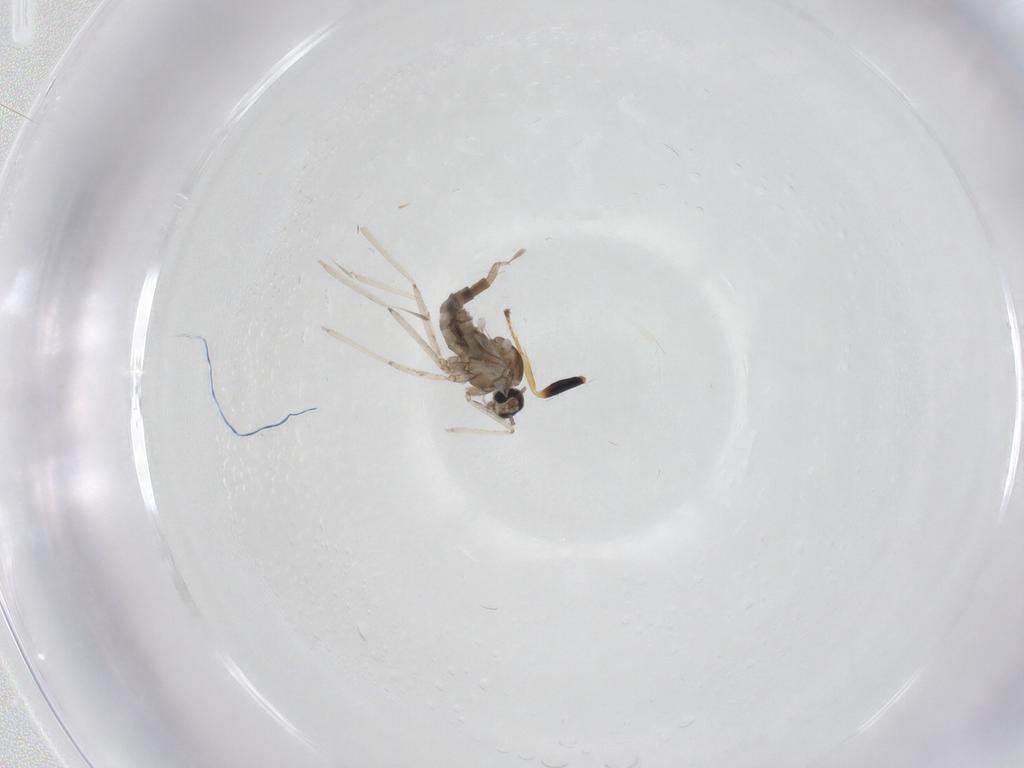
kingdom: Animalia
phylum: Arthropoda
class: Insecta
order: Diptera
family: Cecidomyiidae
